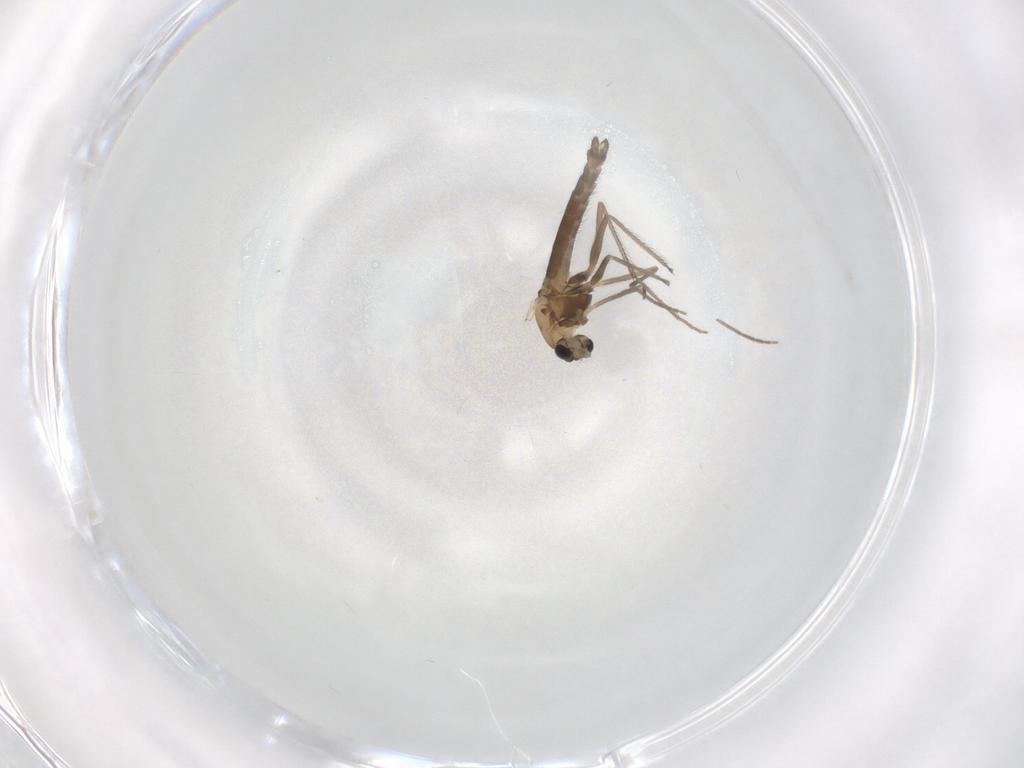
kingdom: Animalia
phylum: Arthropoda
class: Insecta
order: Diptera
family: Chironomidae
